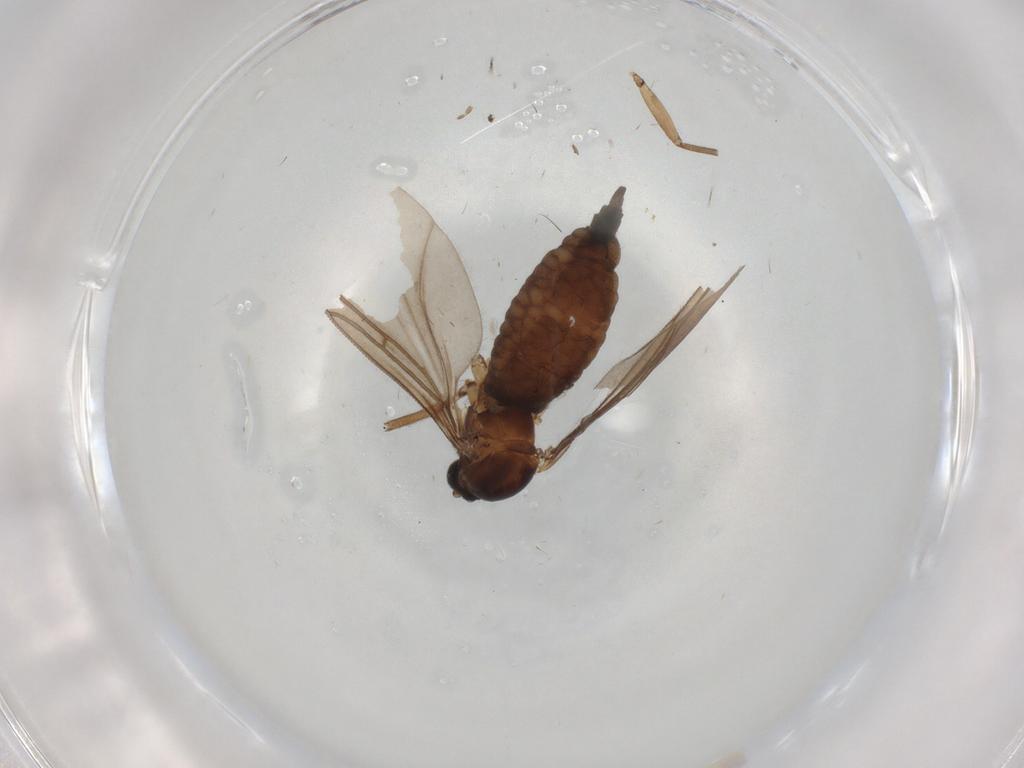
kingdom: Animalia
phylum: Arthropoda
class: Insecta
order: Diptera
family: Sciaridae
